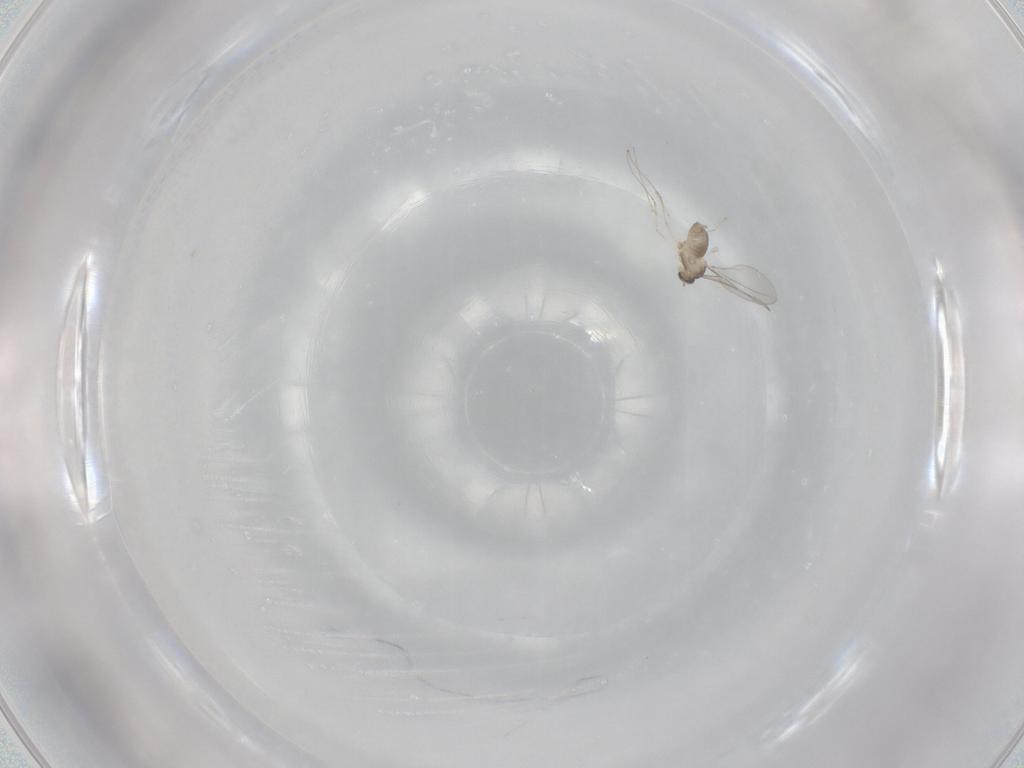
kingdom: Animalia
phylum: Arthropoda
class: Insecta
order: Diptera
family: Cecidomyiidae
